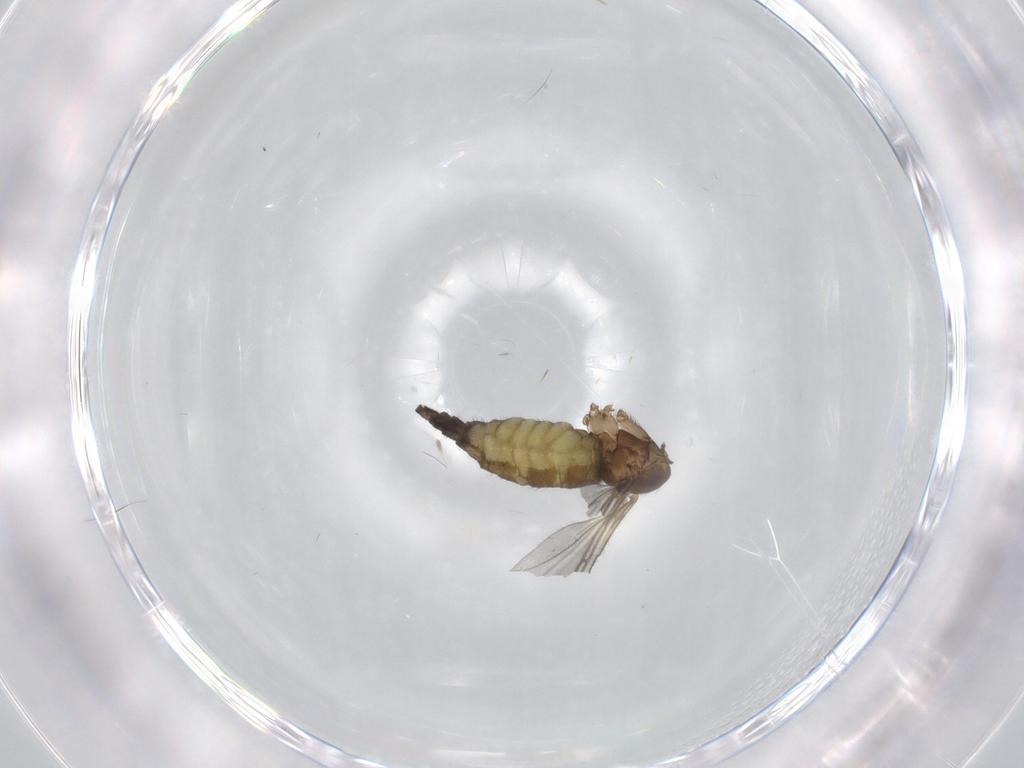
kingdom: Animalia
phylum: Arthropoda
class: Insecta
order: Diptera
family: Sciaridae
